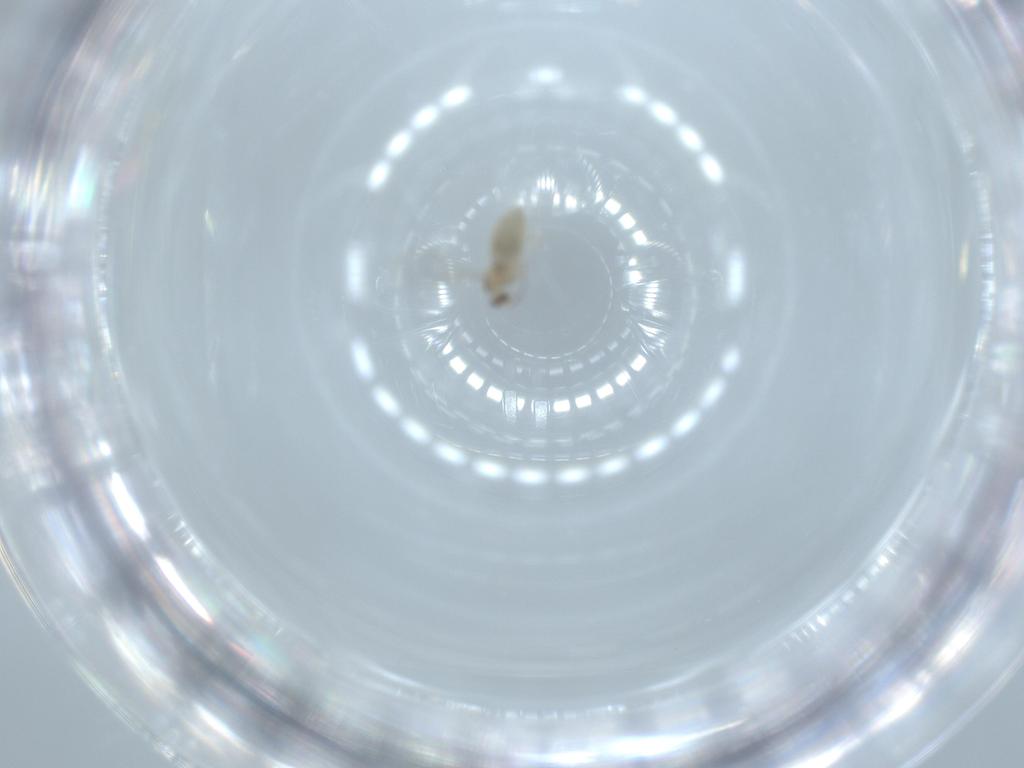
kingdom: Animalia
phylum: Arthropoda
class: Insecta
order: Diptera
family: Cecidomyiidae
